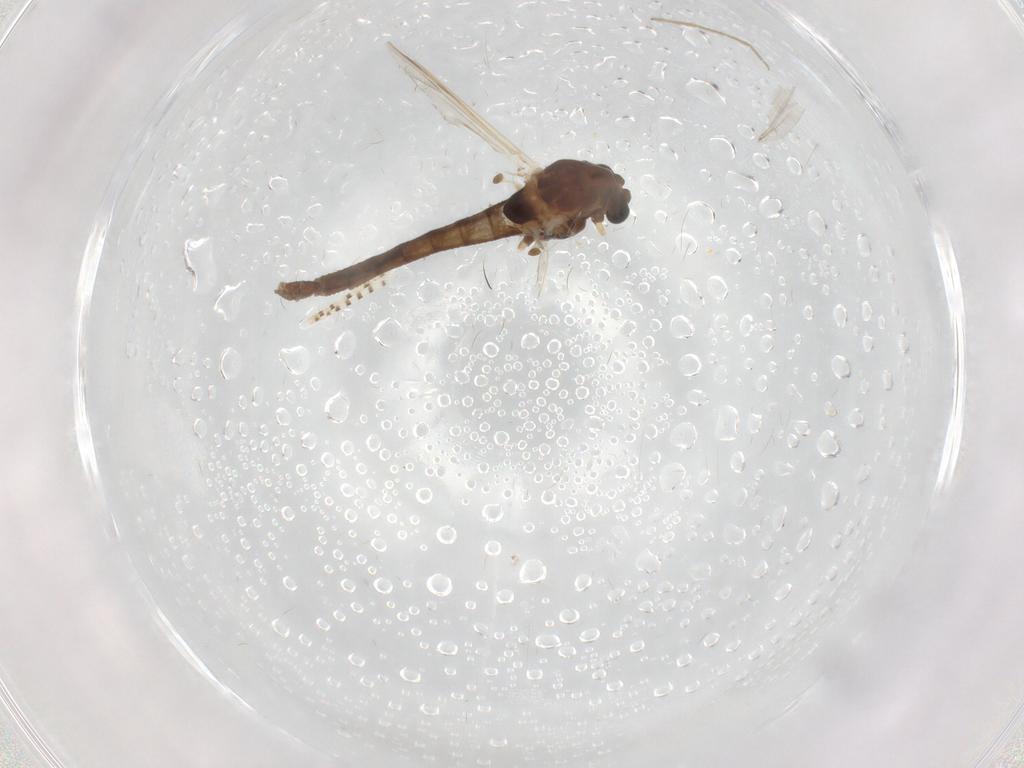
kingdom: Animalia
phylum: Arthropoda
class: Insecta
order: Diptera
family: Chaoboridae
